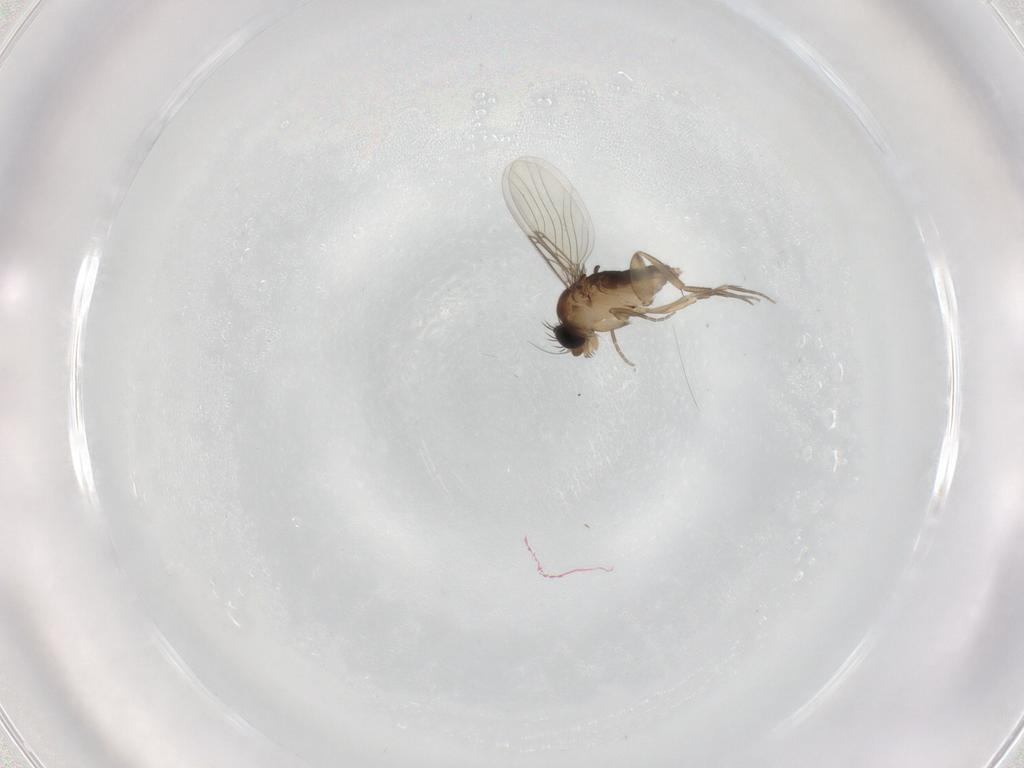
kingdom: Animalia
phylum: Arthropoda
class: Insecta
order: Diptera
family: Phoridae
